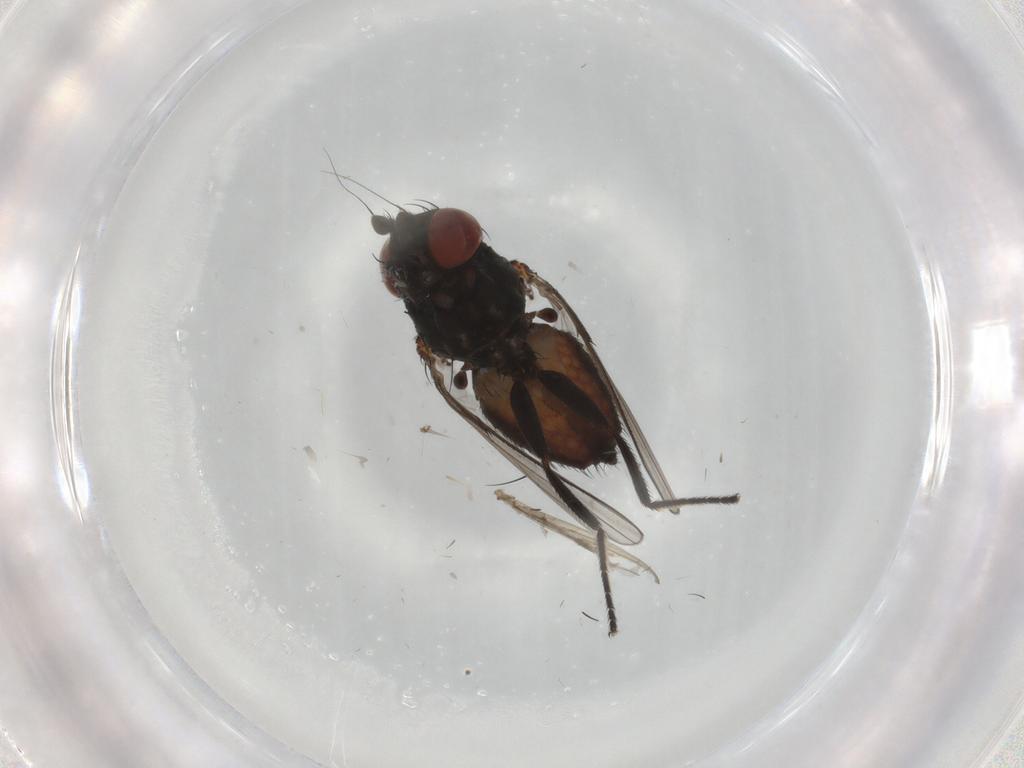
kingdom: Animalia
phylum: Arthropoda
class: Insecta
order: Diptera
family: Milichiidae
